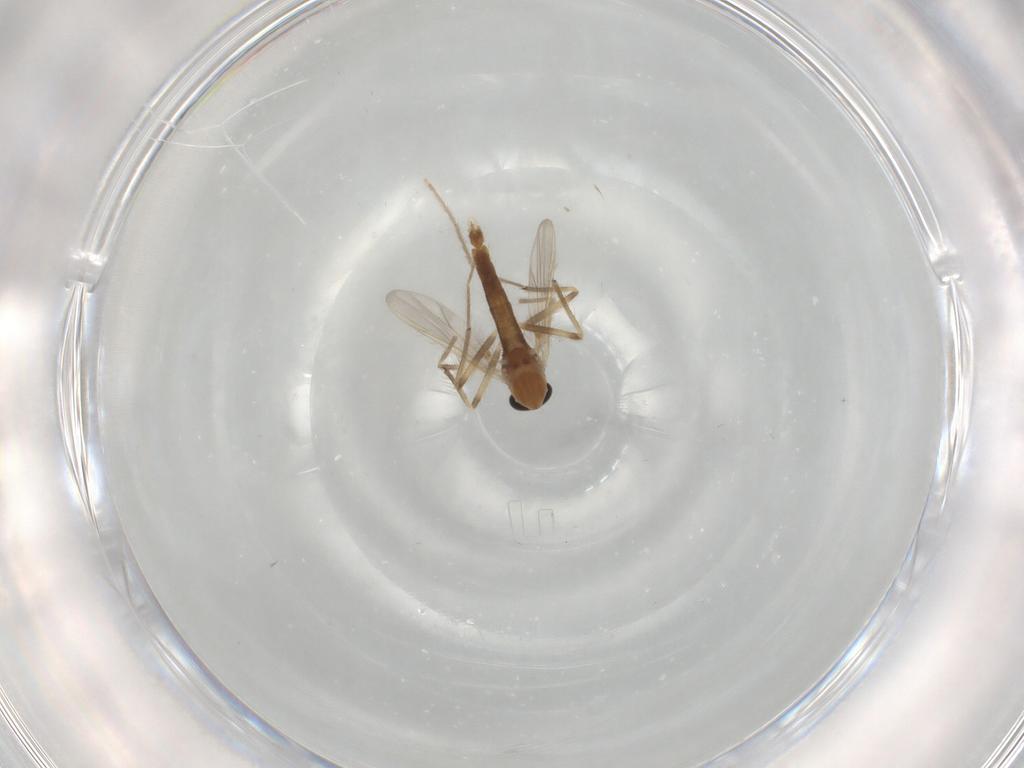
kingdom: Animalia
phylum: Arthropoda
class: Insecta
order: Diptera
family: Chironomidae
